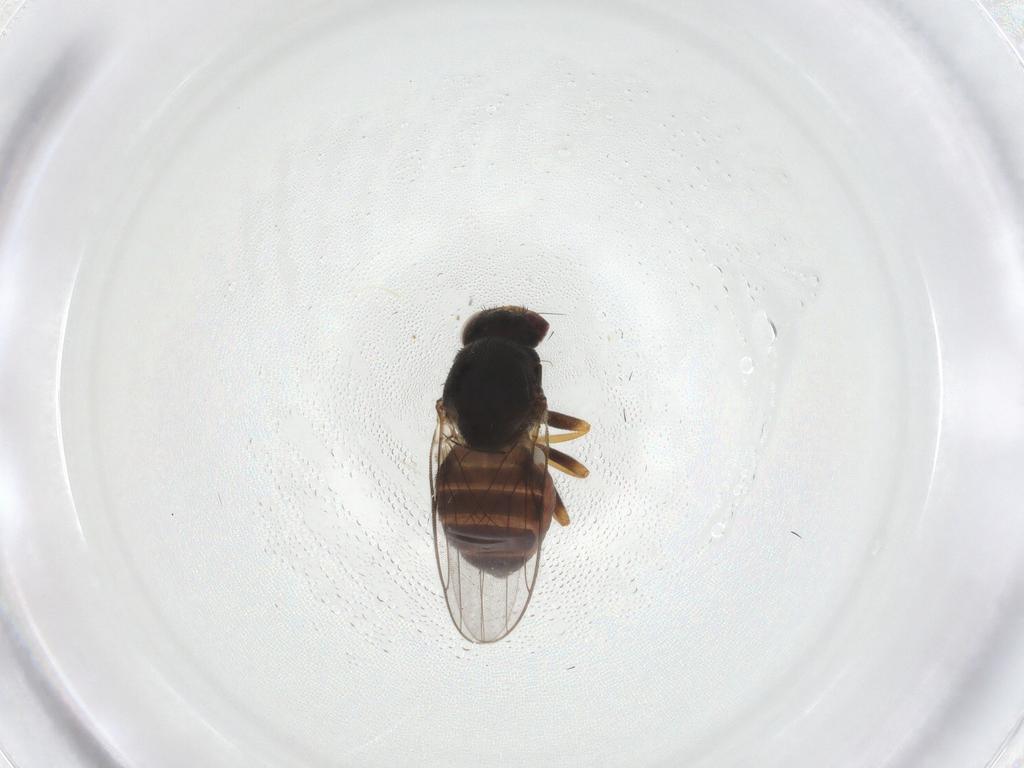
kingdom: Animalia
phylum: Arthropoda
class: Insecta
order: Diptera
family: Chloropidae
